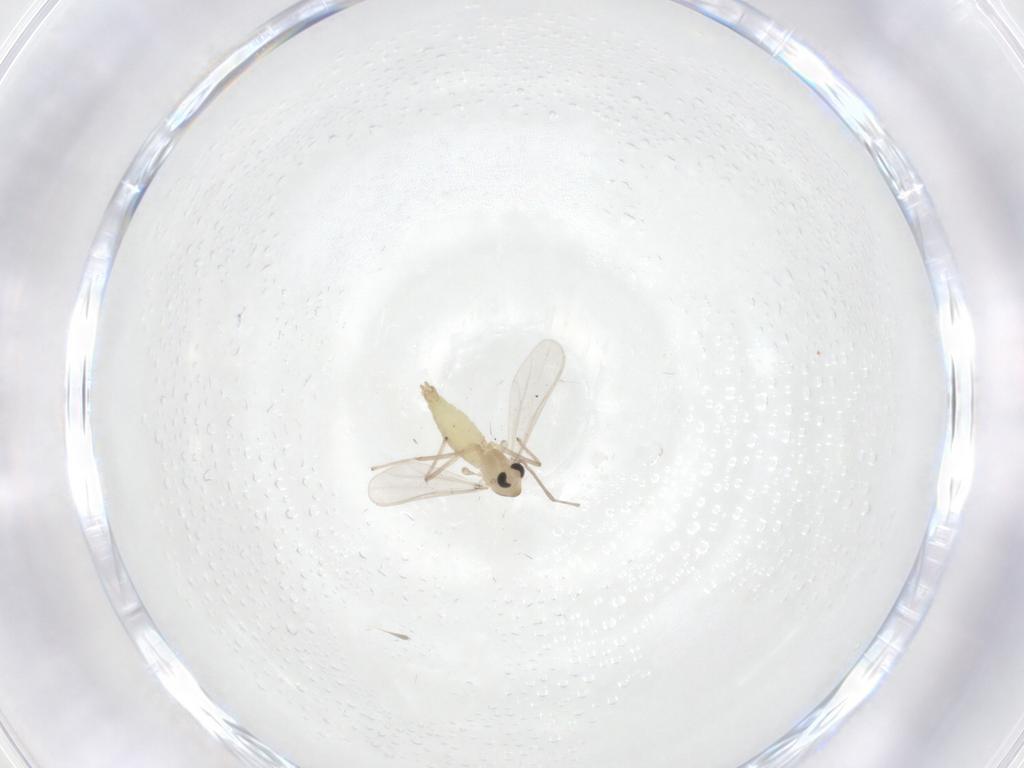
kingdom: Animalia
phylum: Arthropoda
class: Insecta
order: Diptera
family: Chironomidae
